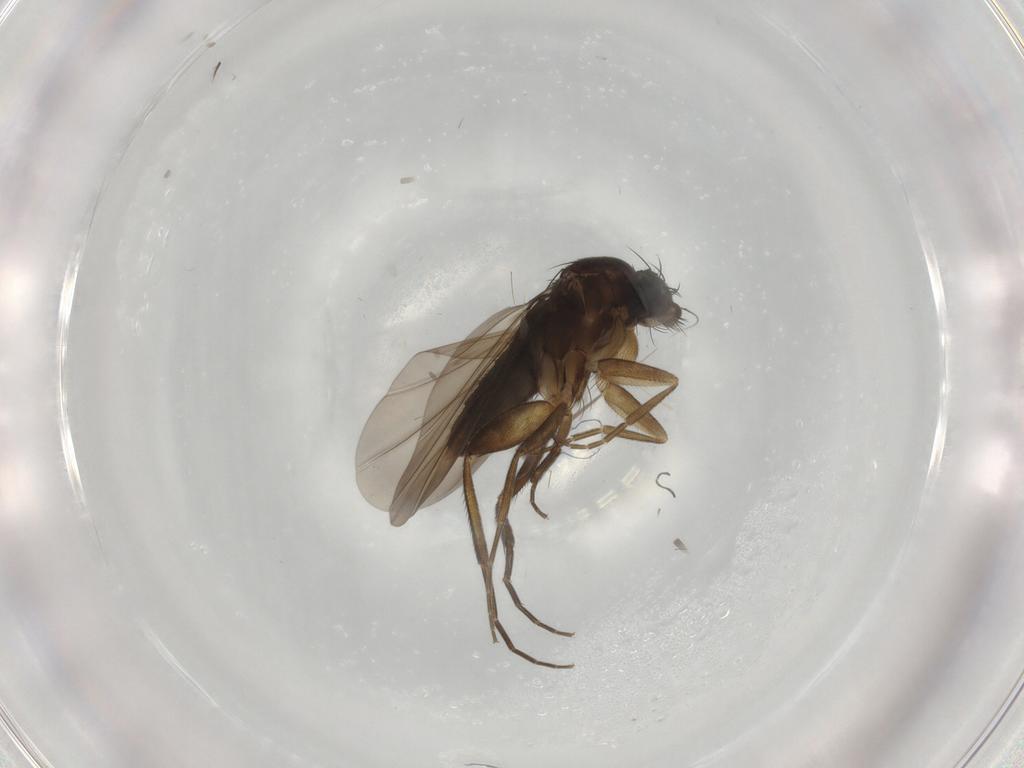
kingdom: Animalia
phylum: Arthropoda
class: Insecta
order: Diptera
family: Phoridae
